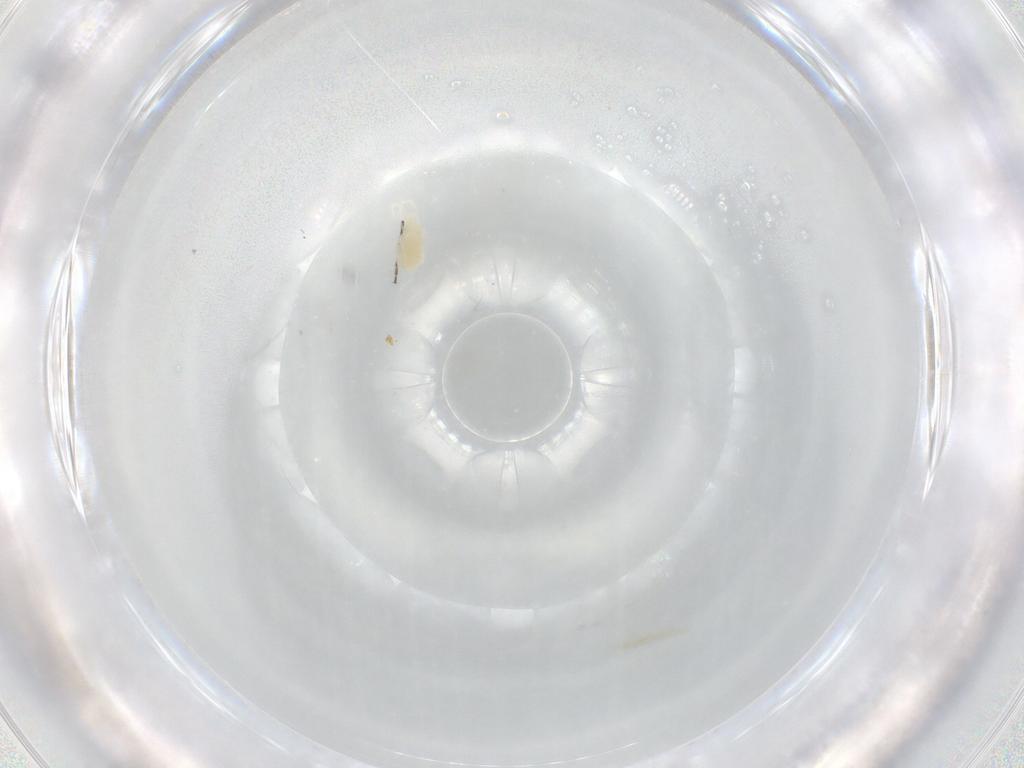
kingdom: Animalia
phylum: Arthropoda
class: Arachnida
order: Trombidiformes
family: Eupodidae
